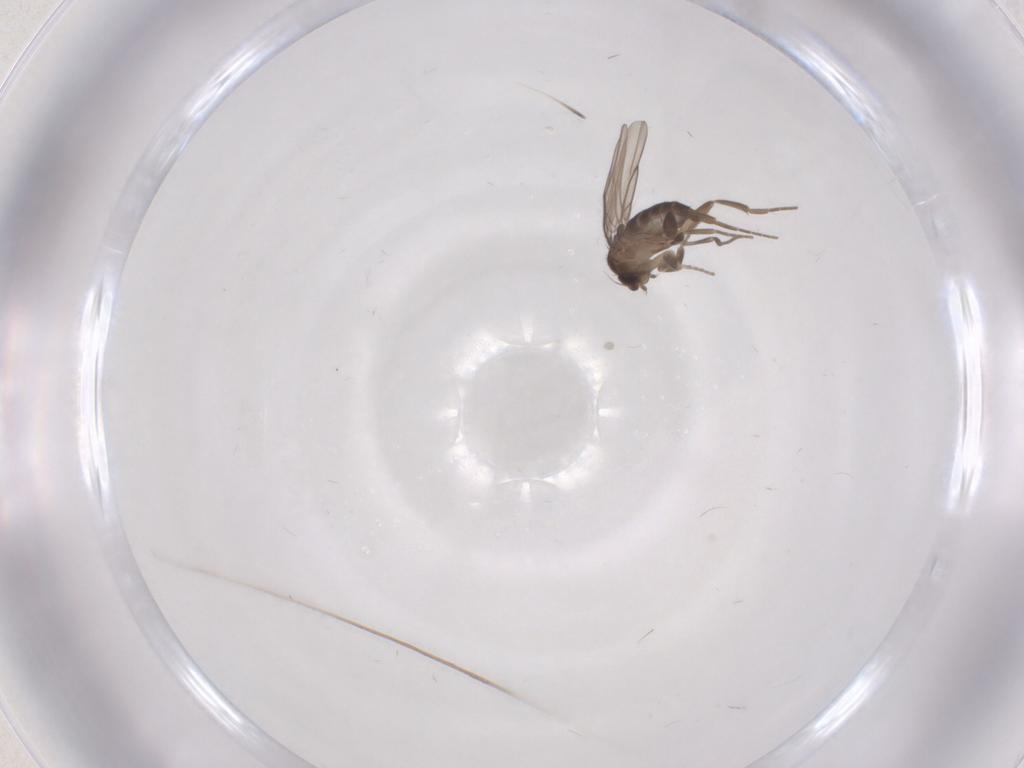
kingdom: Animalia
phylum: Arthropoda
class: Insecta
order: Diptera
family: Sciaridae
